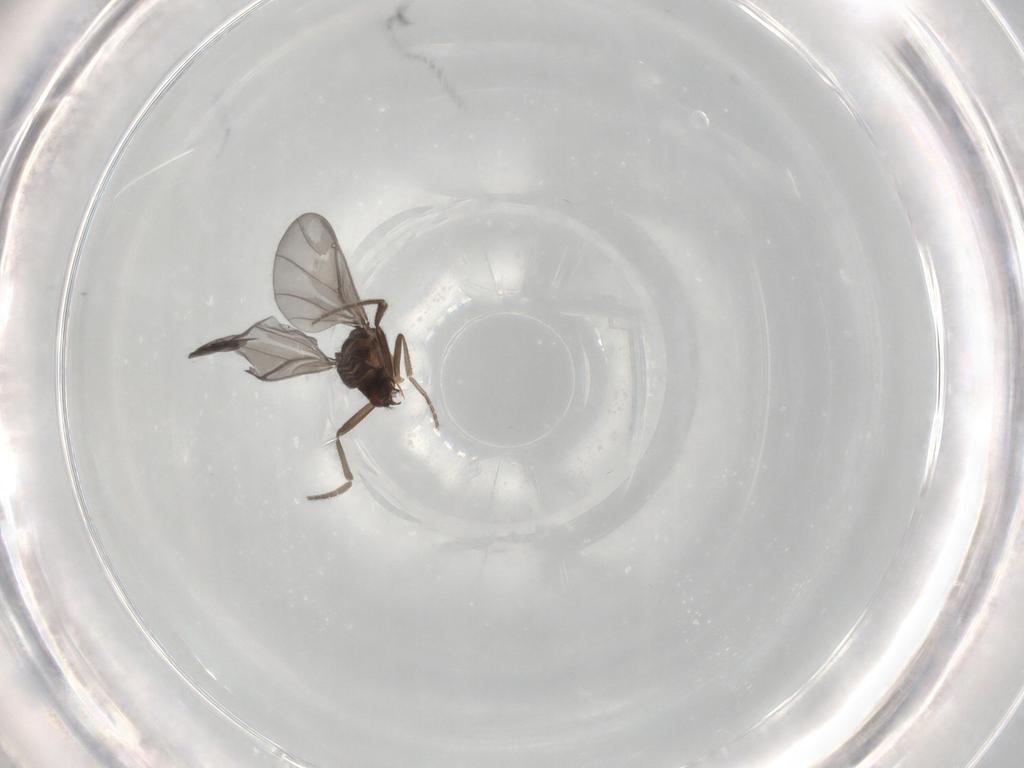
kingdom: Animalia
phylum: Arthropoda
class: Insecta
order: Diptera
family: Phoridae
